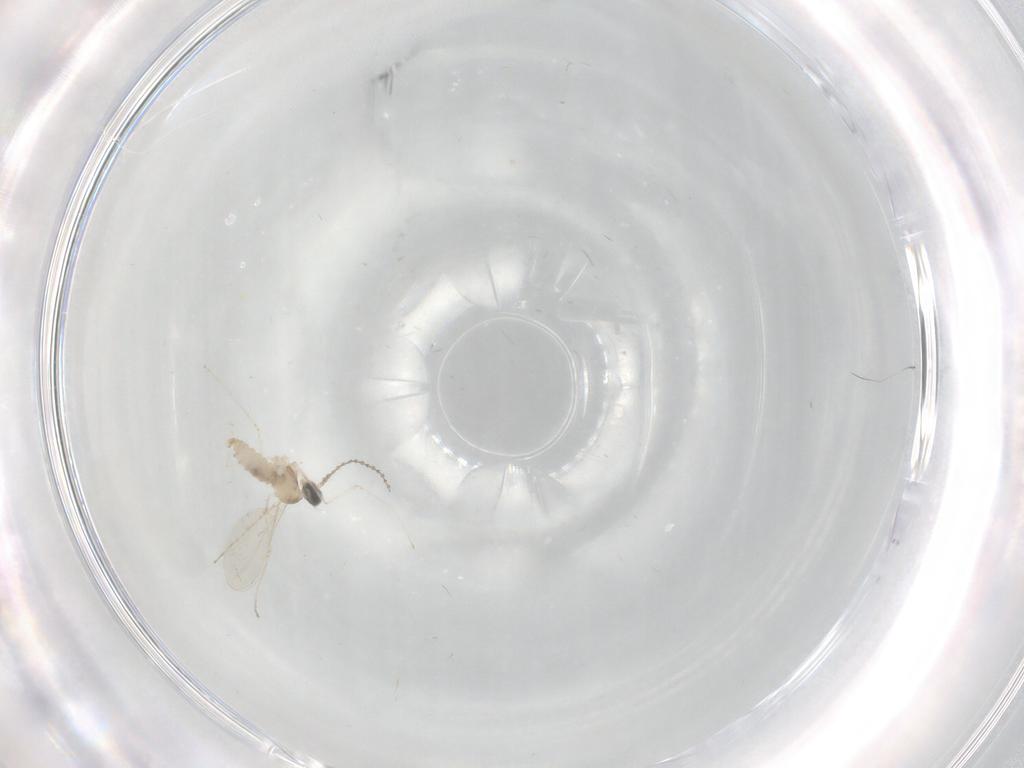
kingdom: Animalia
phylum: Arthropoda
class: Insecta
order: Diptera
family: Cecidomyiidae
